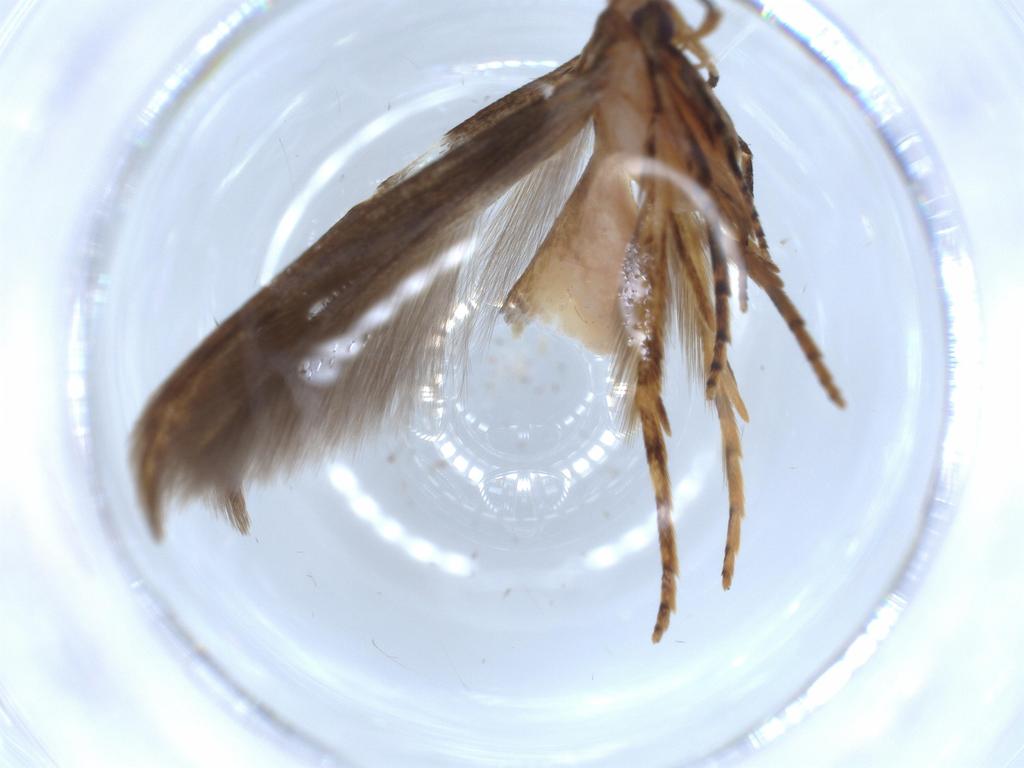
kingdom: Animalia
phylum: Arthropoda
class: Insecta
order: Lepidoptera
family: Heliodinidae
